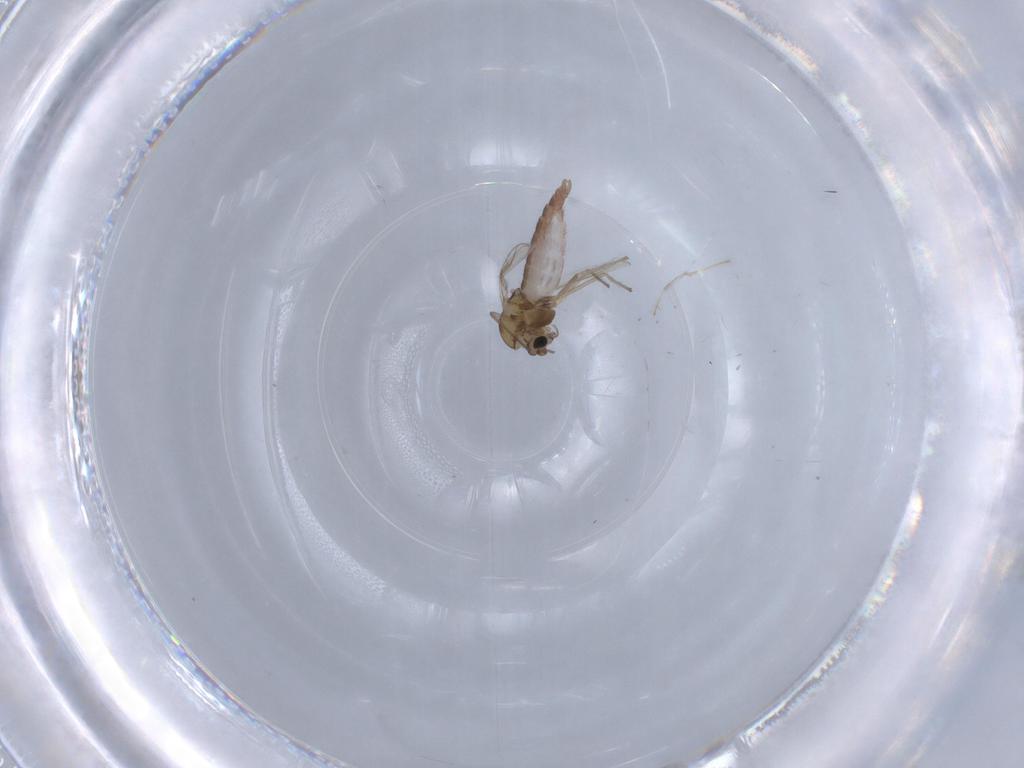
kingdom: Animalia
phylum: Arthropoda
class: Insecta
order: Diptera
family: Chironomidae
